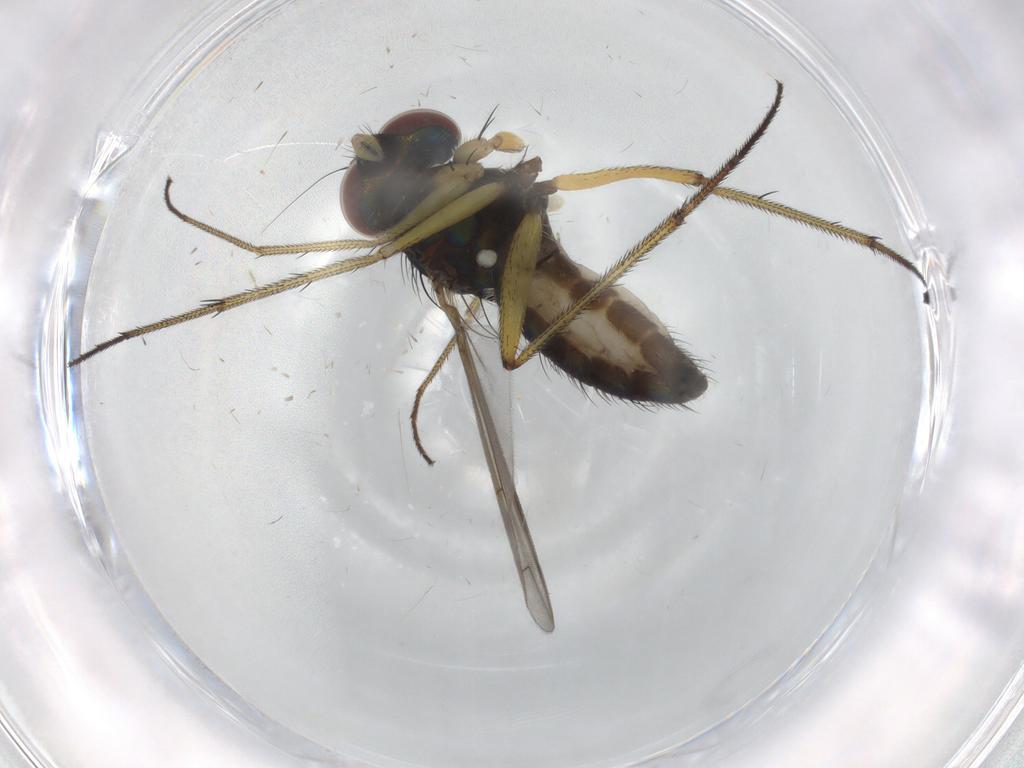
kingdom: Animalia
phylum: Arthropoda
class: Insecta
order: Diptera
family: Dolichopodidae
